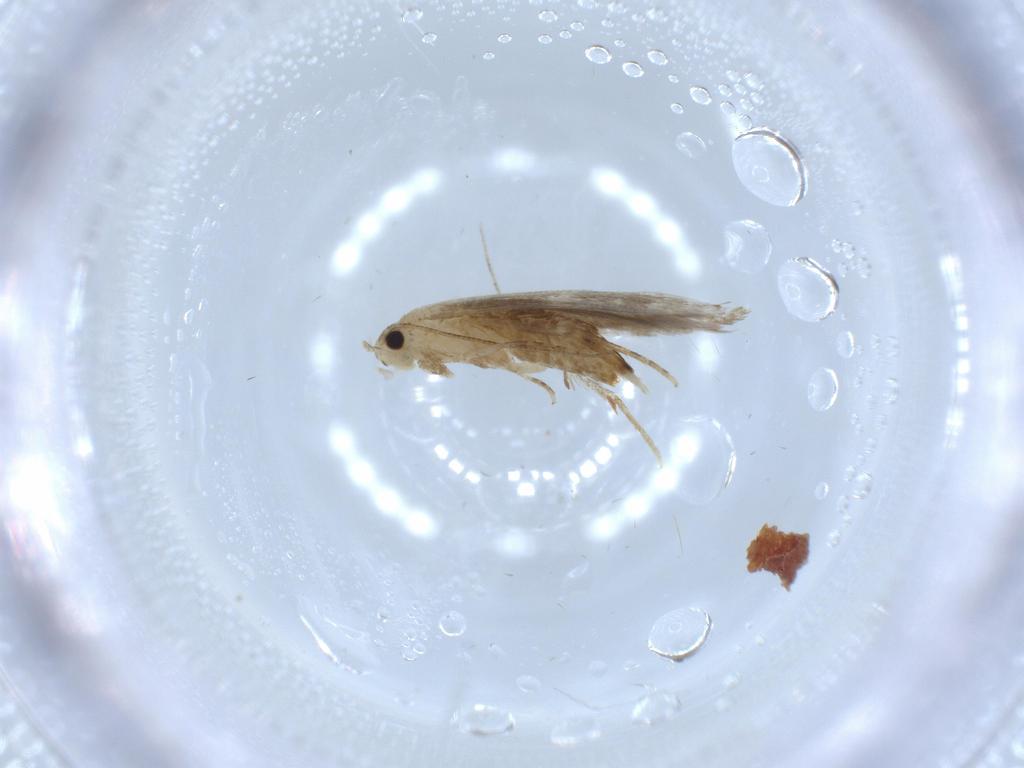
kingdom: Animalia
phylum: Arthropoda
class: Insecta
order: Lepidoptera
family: Tineidae
